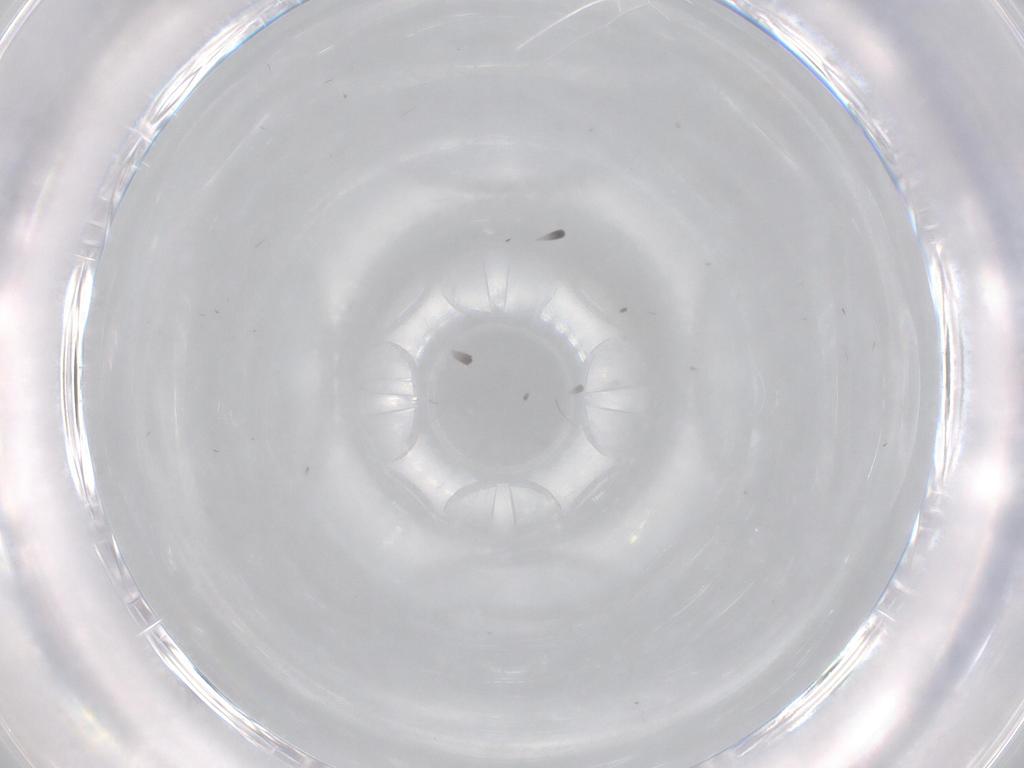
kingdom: Animalia
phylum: Arthropoda
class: Insecta
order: Blattodea
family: Ectobiidae
